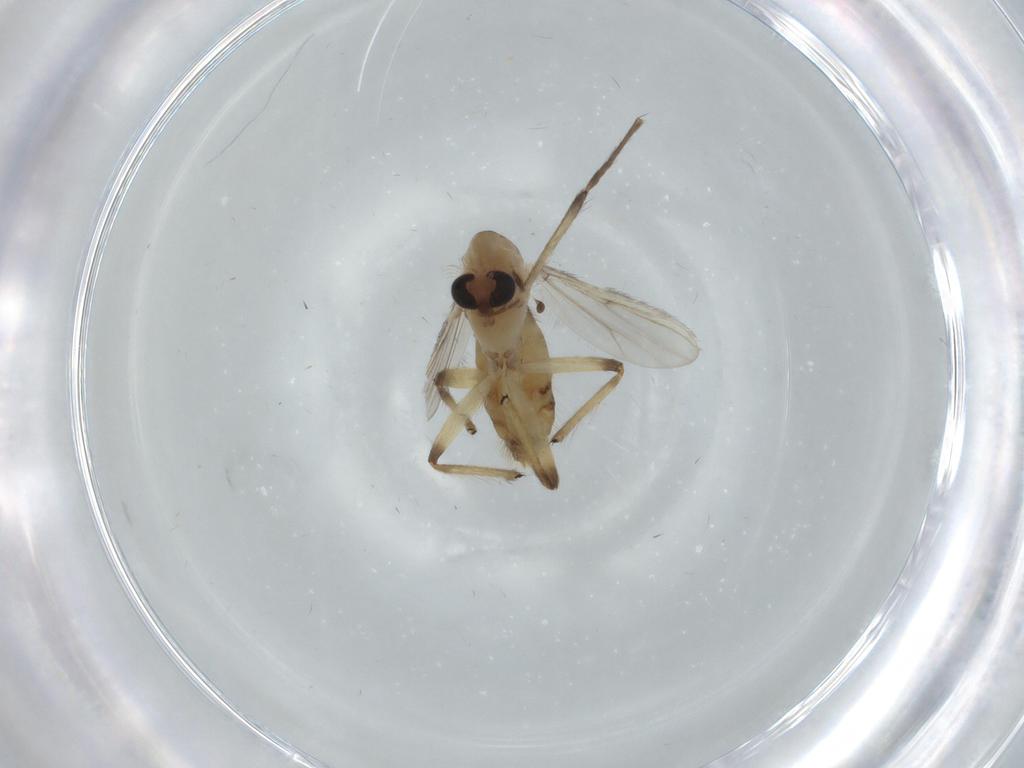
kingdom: Animalia
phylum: Arthropoda
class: Insecta
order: Diptera
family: Chironomidae
